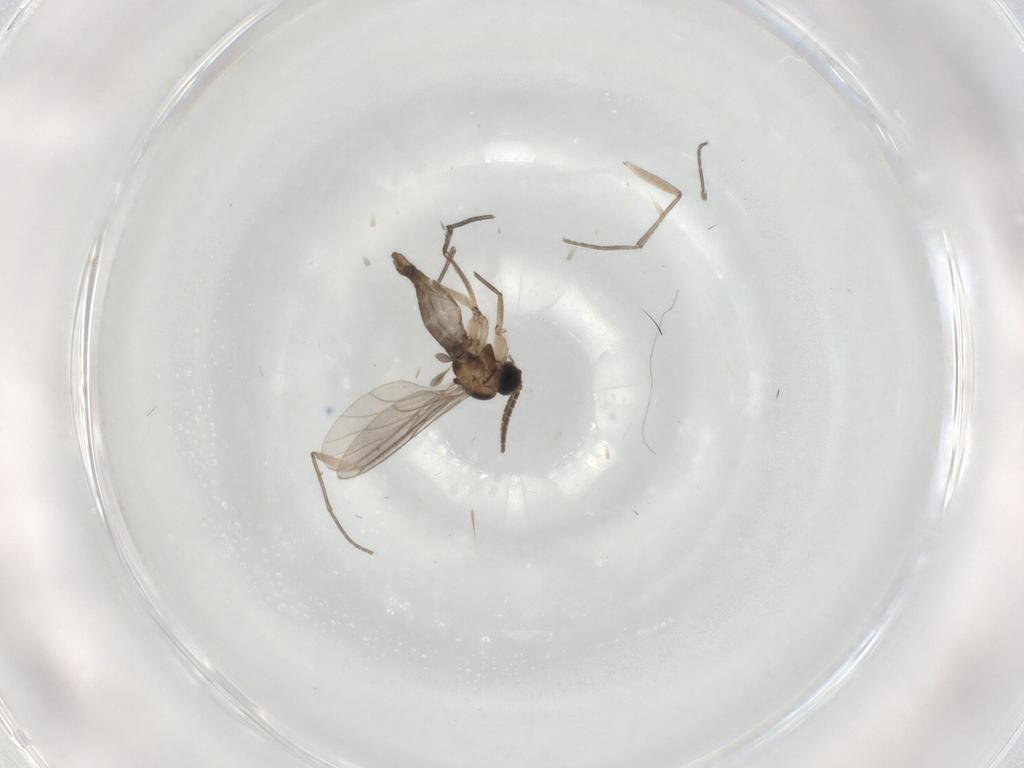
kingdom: Animalia
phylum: Arthropoda
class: Insecta
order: Diptera
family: Sciaridae
